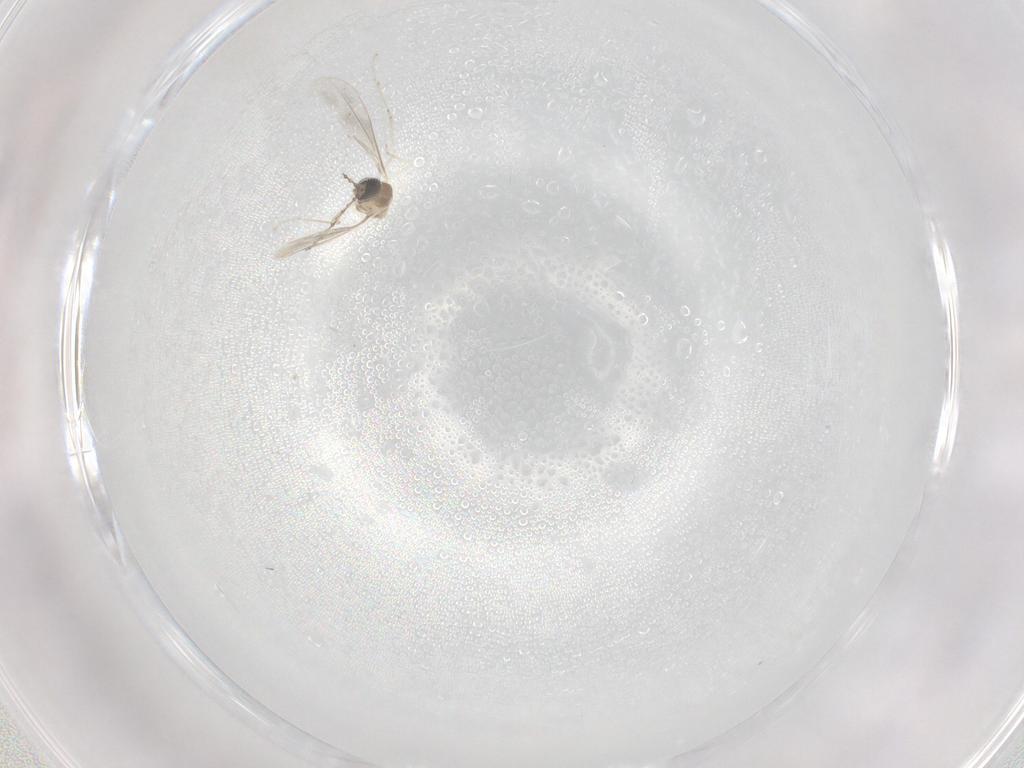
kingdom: Animalia
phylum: Arthropoda
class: Insecta
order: Diptera
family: Cecidomyiidae
